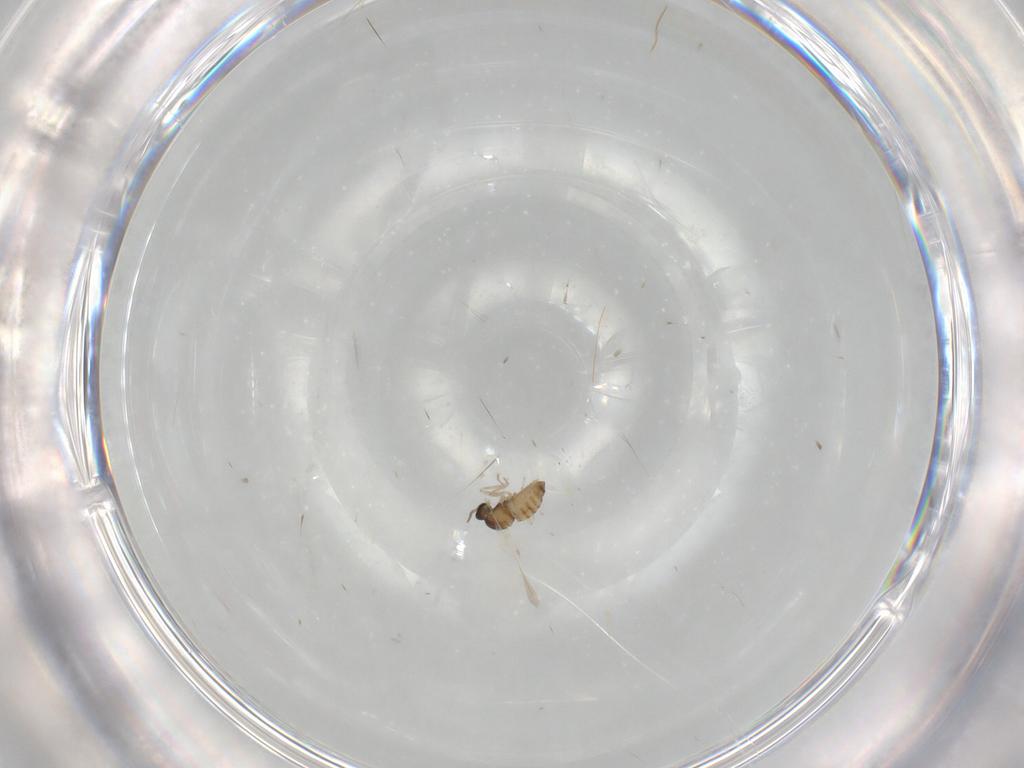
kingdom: Animalia
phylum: Arthropoda
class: Insecta
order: Diptera
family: Cecidomyiidae
